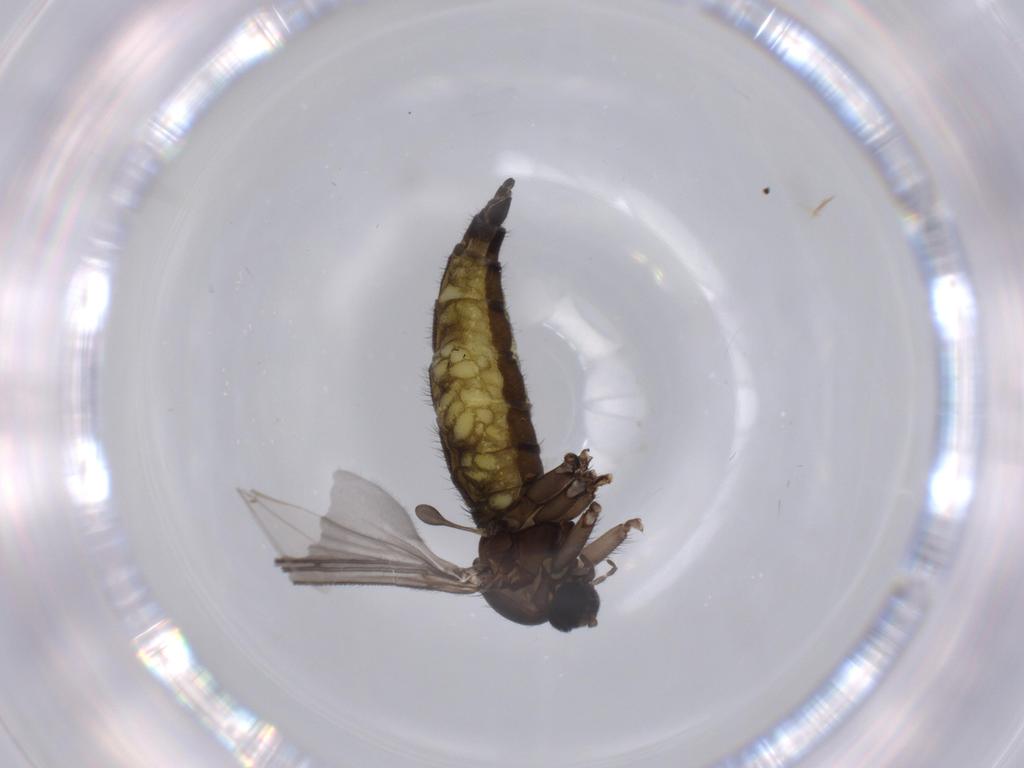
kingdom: Animalia
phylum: Arthropoda
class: Insecta
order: Diptera
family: Sciaridae
